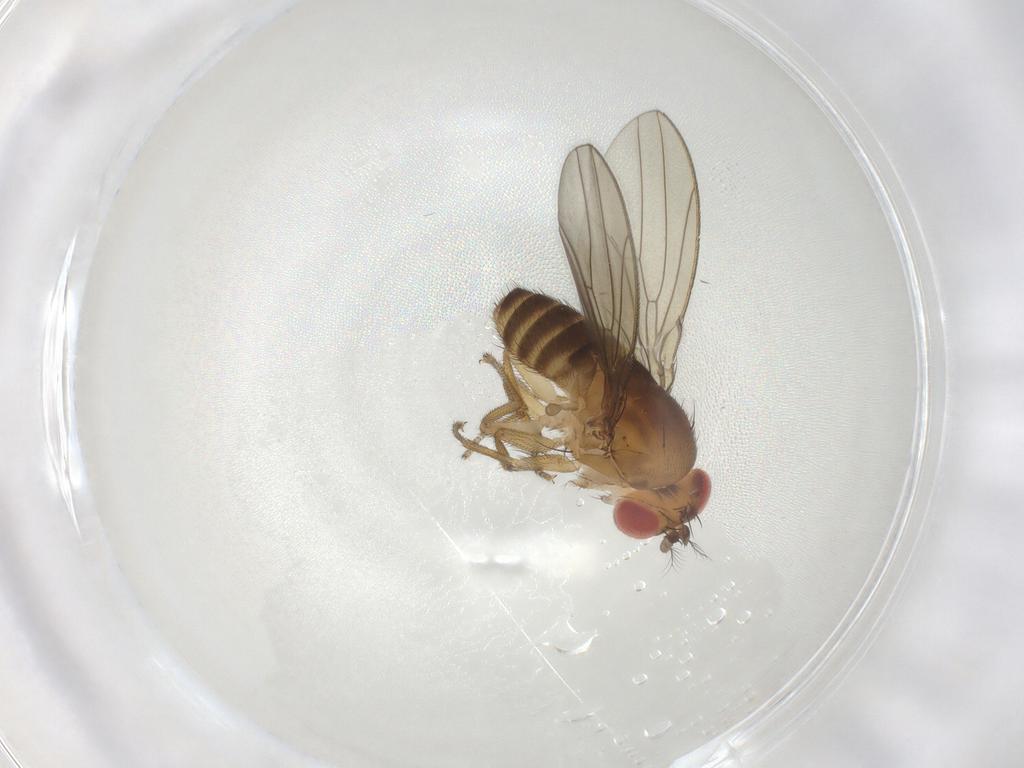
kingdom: Animalia
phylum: Arthropoda
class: Insecta
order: Diptera
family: Drosophilidae
